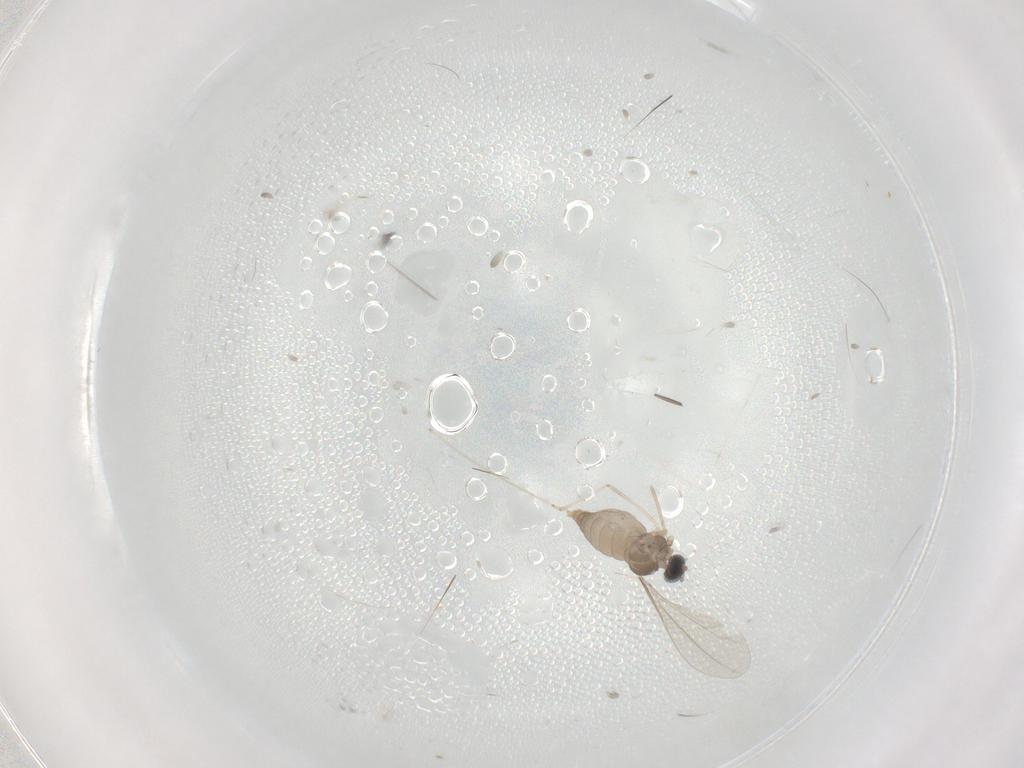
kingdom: Animalia
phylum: Arthropoda
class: Insecta
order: Diptera
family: Cecidomyiidae
